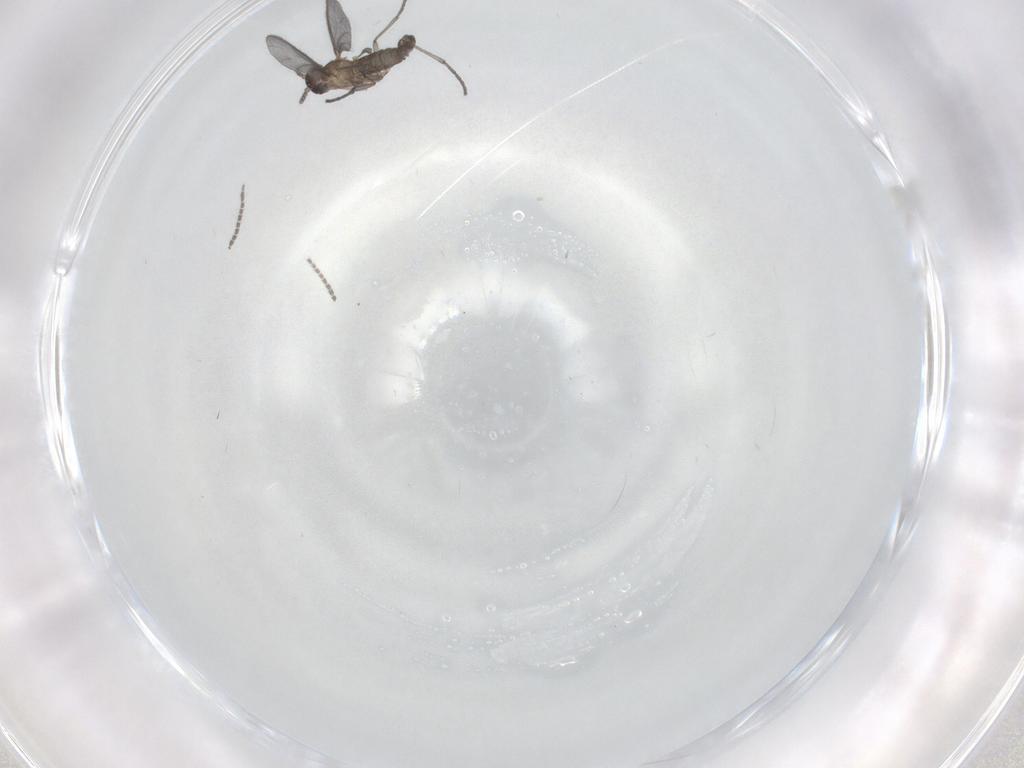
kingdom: Animalia
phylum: Arthropoda
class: Insecta
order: Diptera
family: Sciaridae
